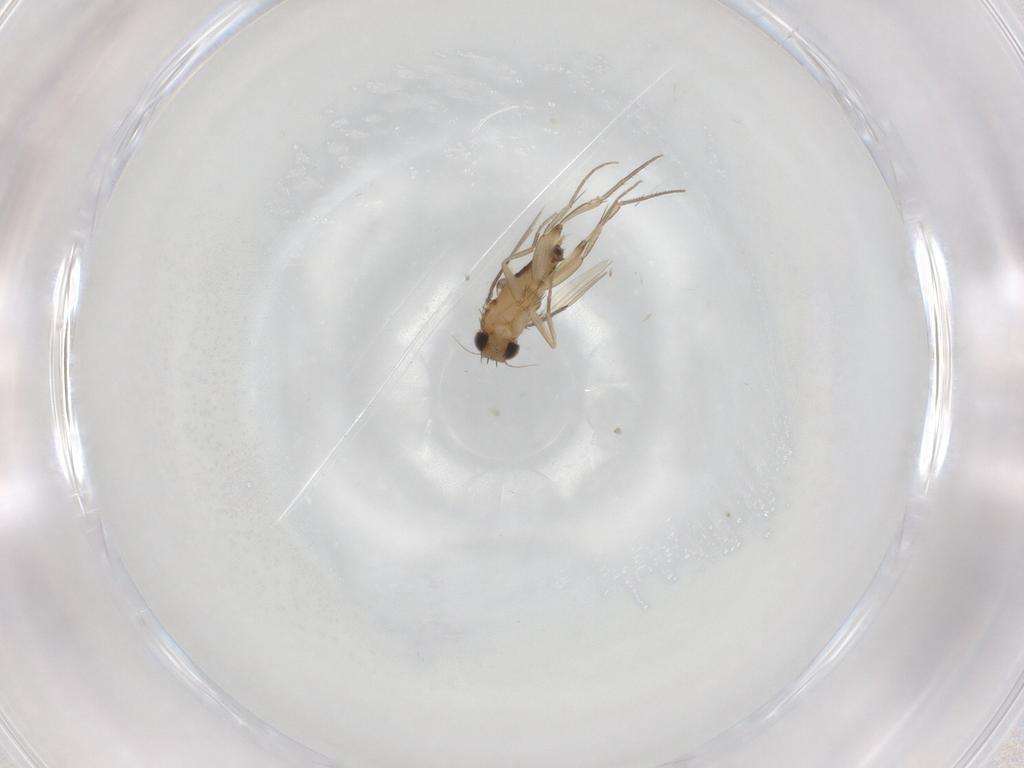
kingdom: Animalia
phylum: Arthropoda
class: Insecta
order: Diptera
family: Phoridae
